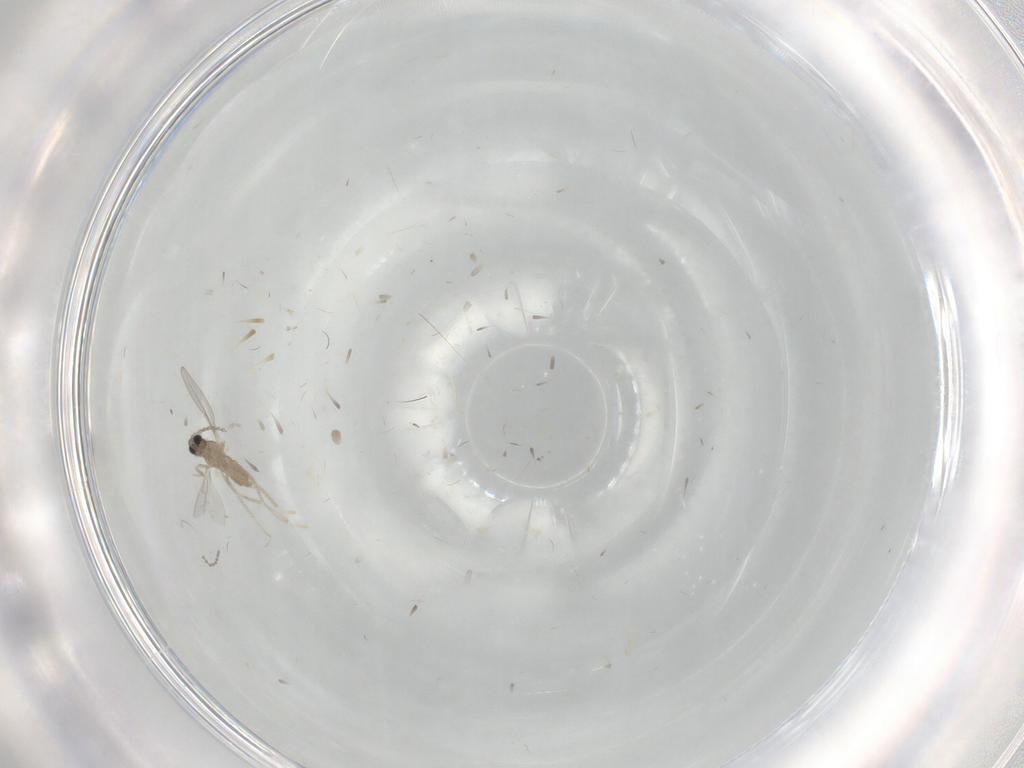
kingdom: Animalia
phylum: Arthropoda
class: Insecta
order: Diptera
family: Cecidomyiidae
